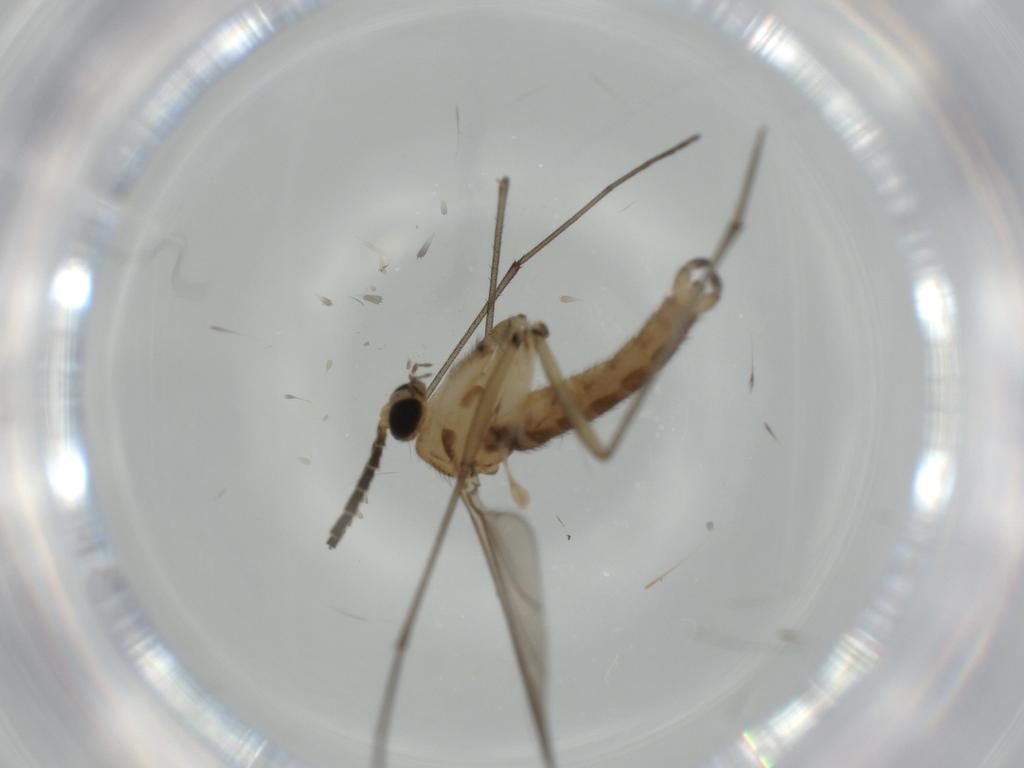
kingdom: Animalia
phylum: Arthropoda
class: Insecta
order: Diptera
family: Sciaridae
